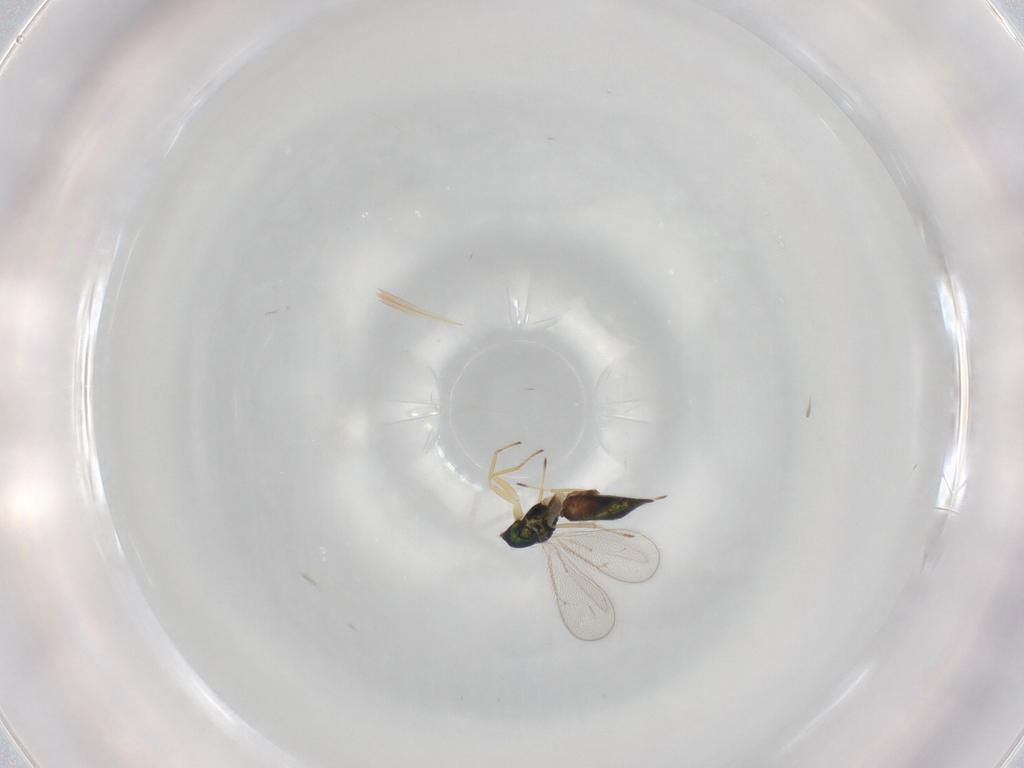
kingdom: Animalia
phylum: Arthropoda
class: Insecta
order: Hymenoptera
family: Eulophidae
